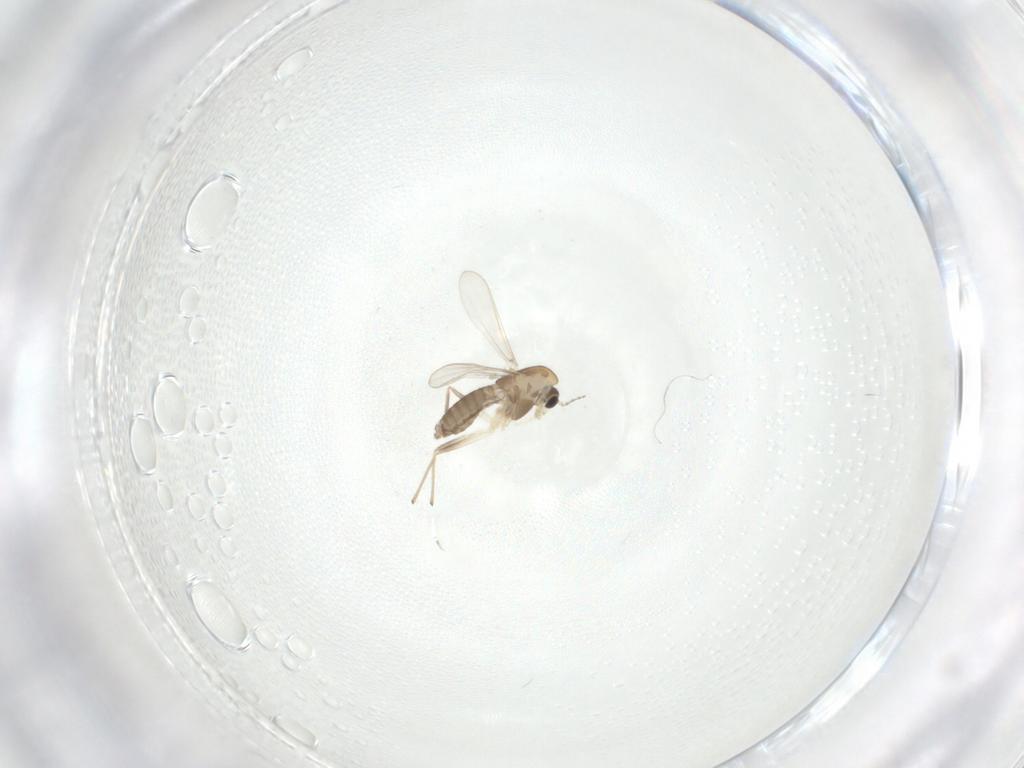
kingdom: Animalia
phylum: Arthropoda
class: Insecta
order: Diptera
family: Chironomidae
